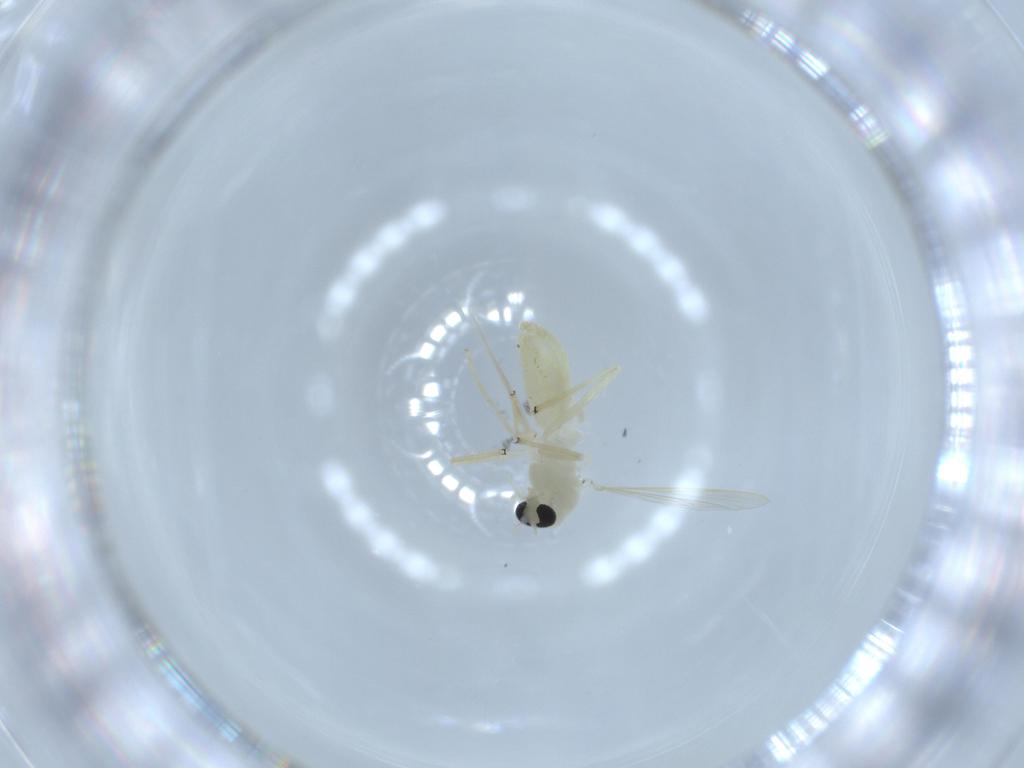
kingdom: Animalia
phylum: Arthropoda
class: Insecta
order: Diptera
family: Chironomidae
